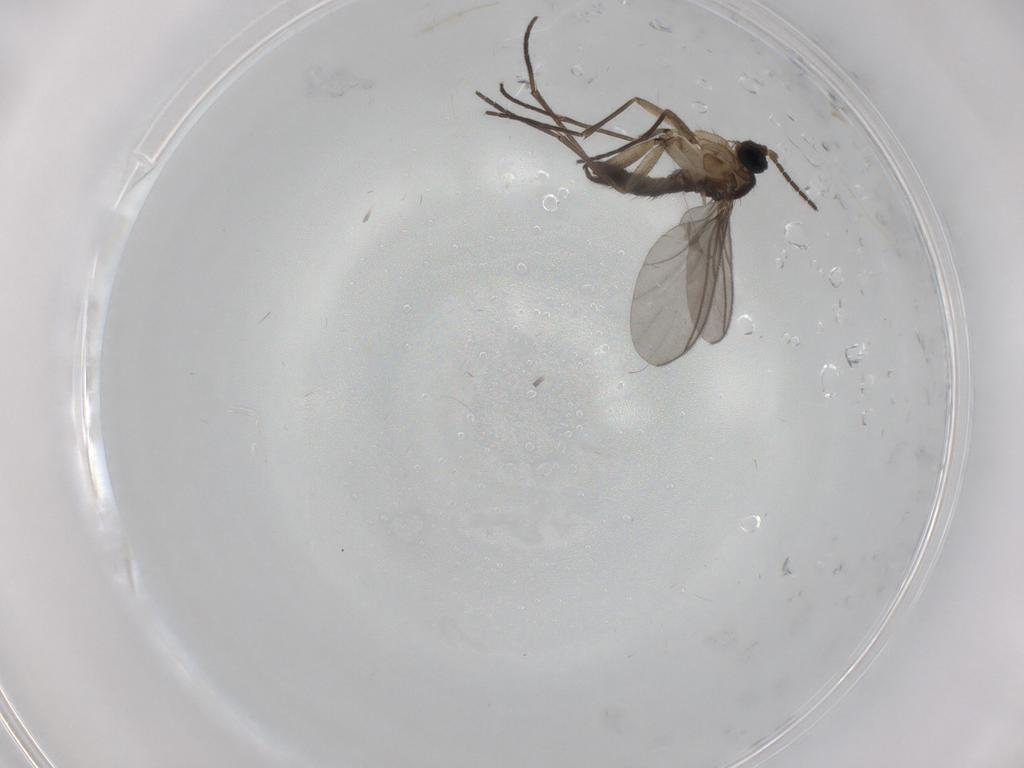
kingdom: Animalia
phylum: Arthropoda
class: Insecta
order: Diptera
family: Sciaridae
